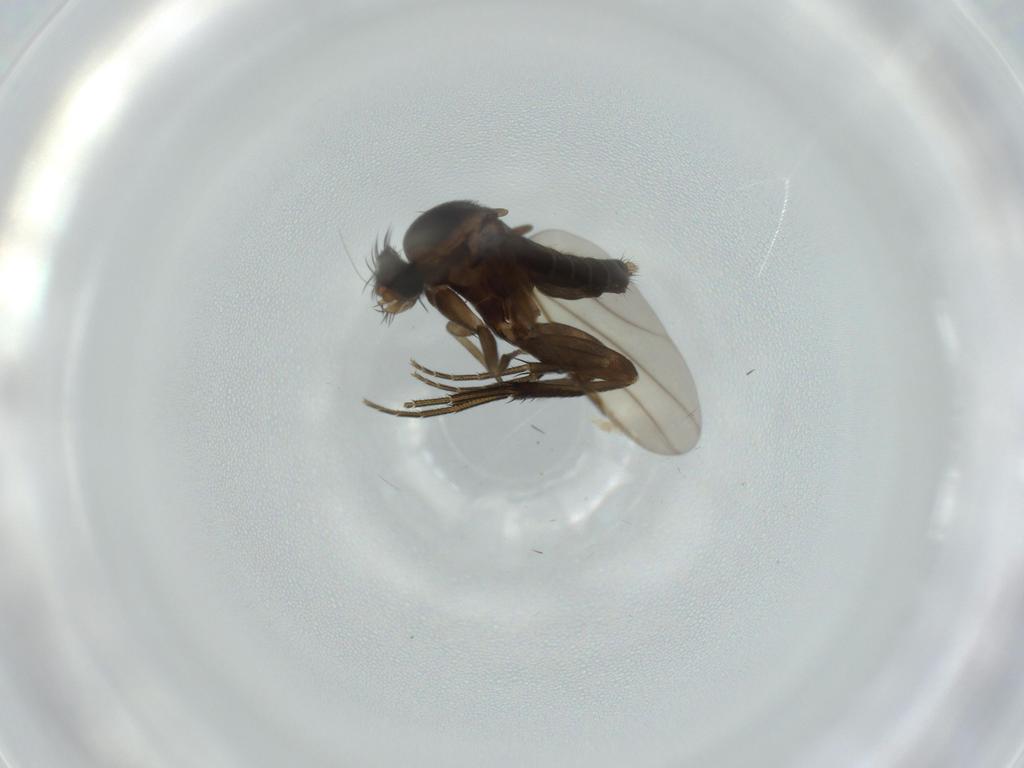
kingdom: Animalia
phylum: Arthropoda
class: Insecta
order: Diptera
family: Phoridae
